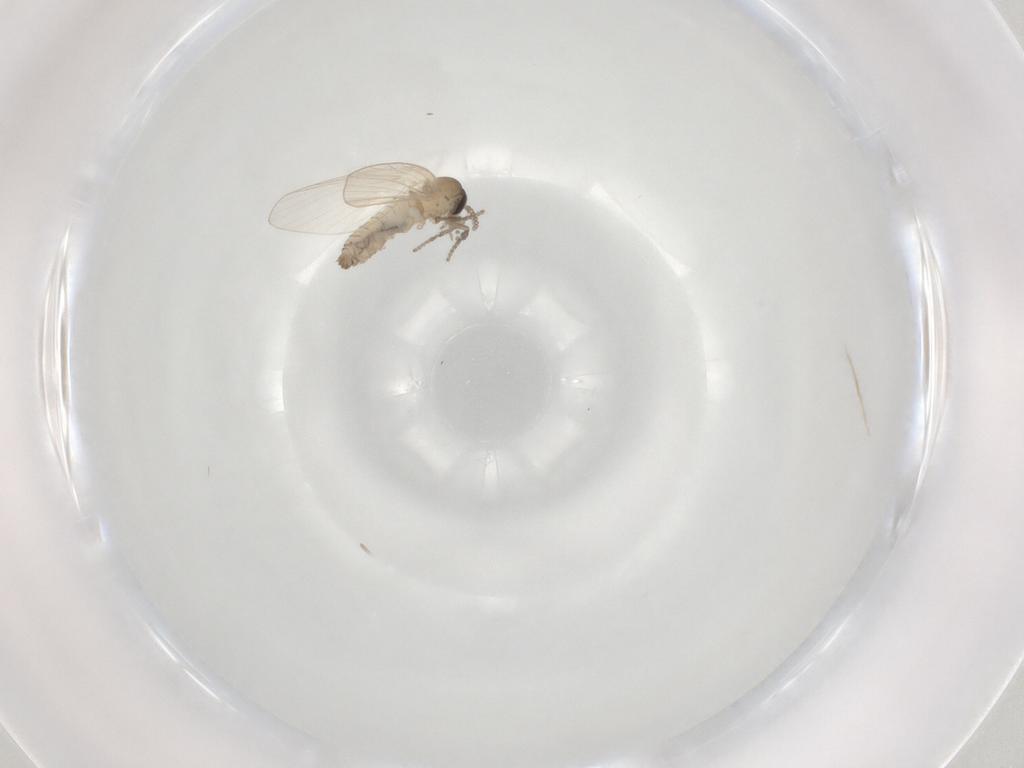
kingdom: Animalia
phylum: Arthropoda
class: Insecta
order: Diptera
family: Psychodidae
